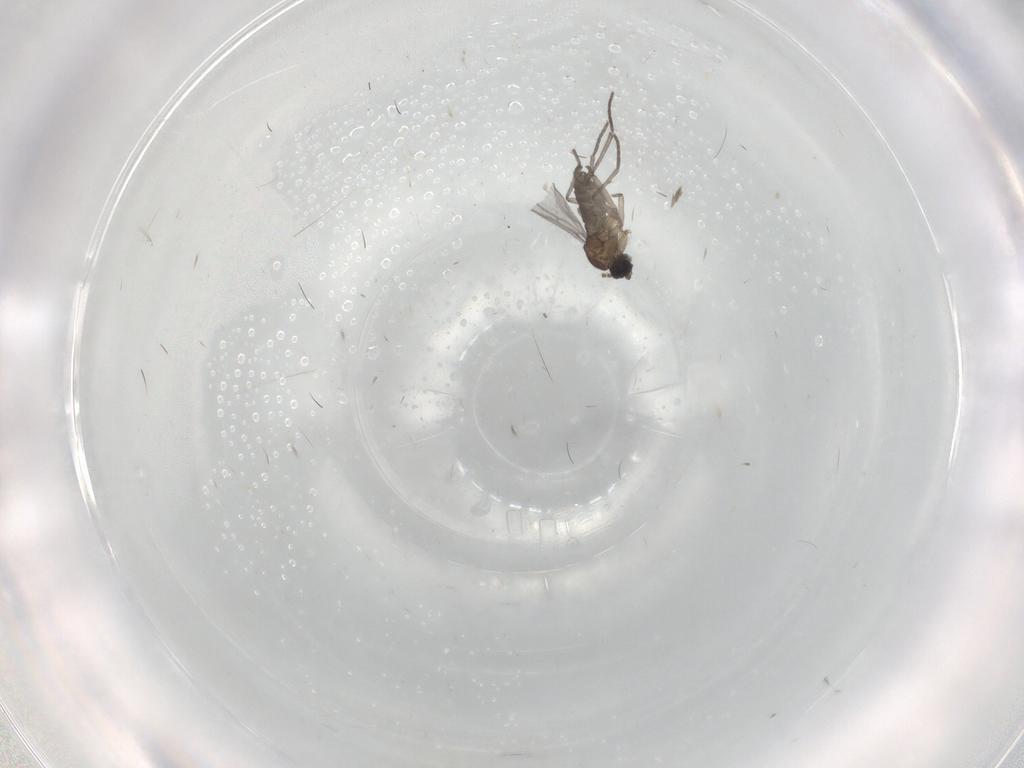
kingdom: Animalia
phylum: Arthropoda
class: Insecta
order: Diptera
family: Sciaridae
